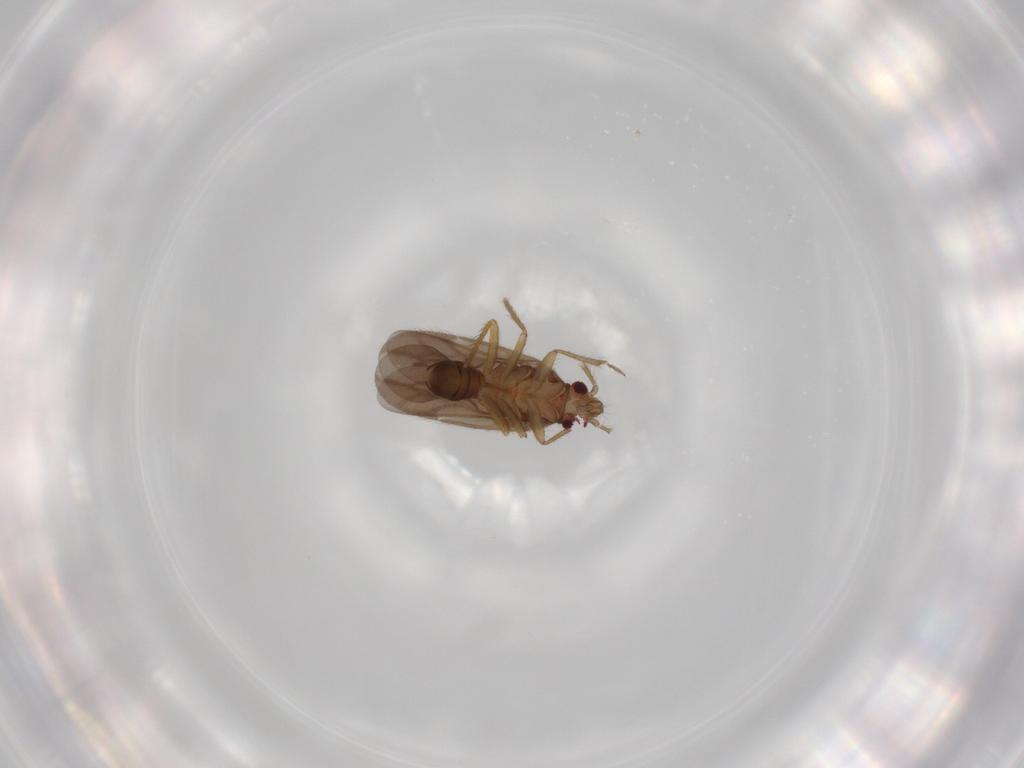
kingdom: Animalia
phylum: Arthropoda
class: Insecta
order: Hemiptera
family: Ceratocombidae
